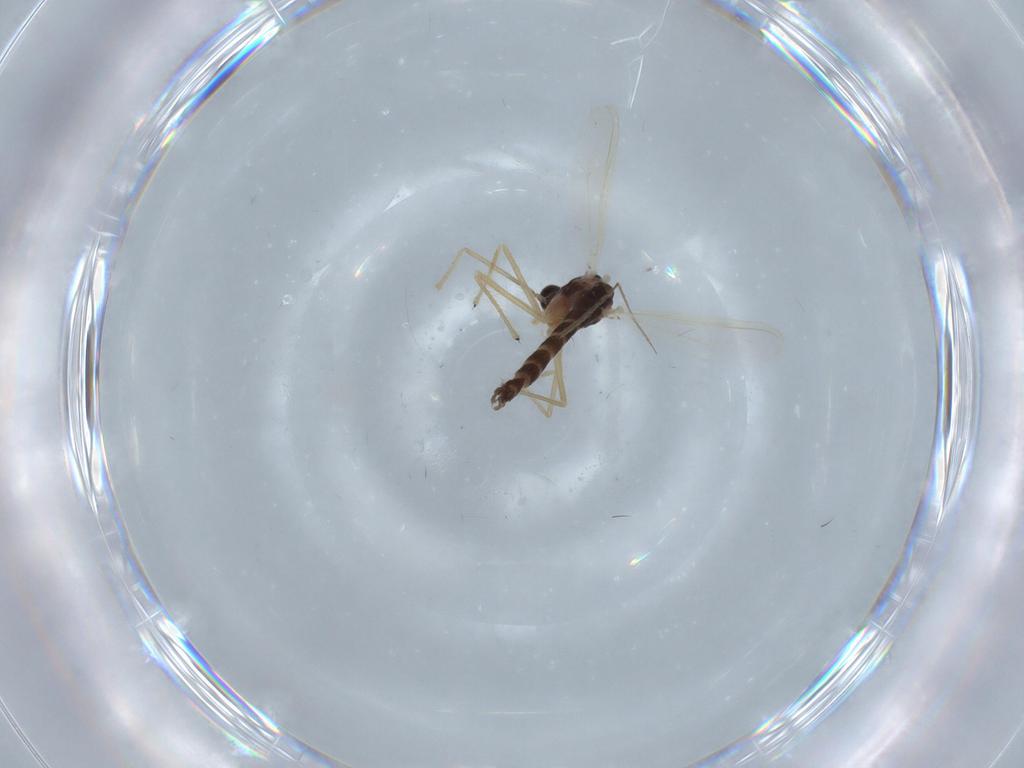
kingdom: Animalia
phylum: Arthropoda
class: Insecta
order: Diptera
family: Chironomidae
